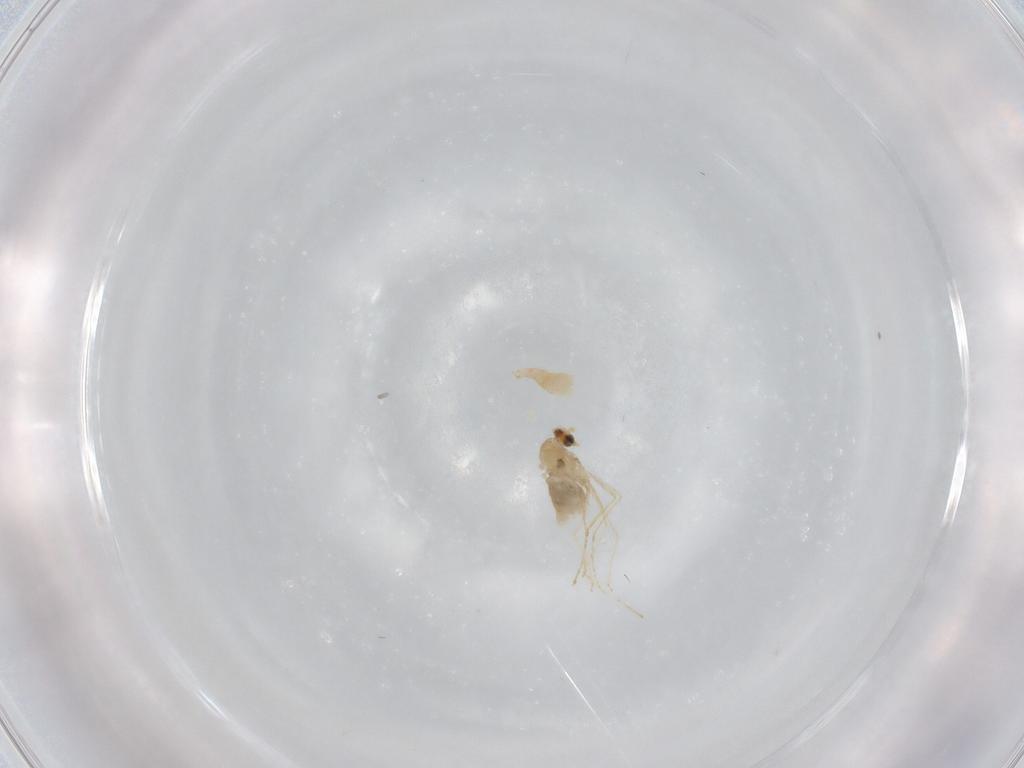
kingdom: Animalia
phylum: Arthropoda
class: Insecta
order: Diptera
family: Cecidomyiidae
